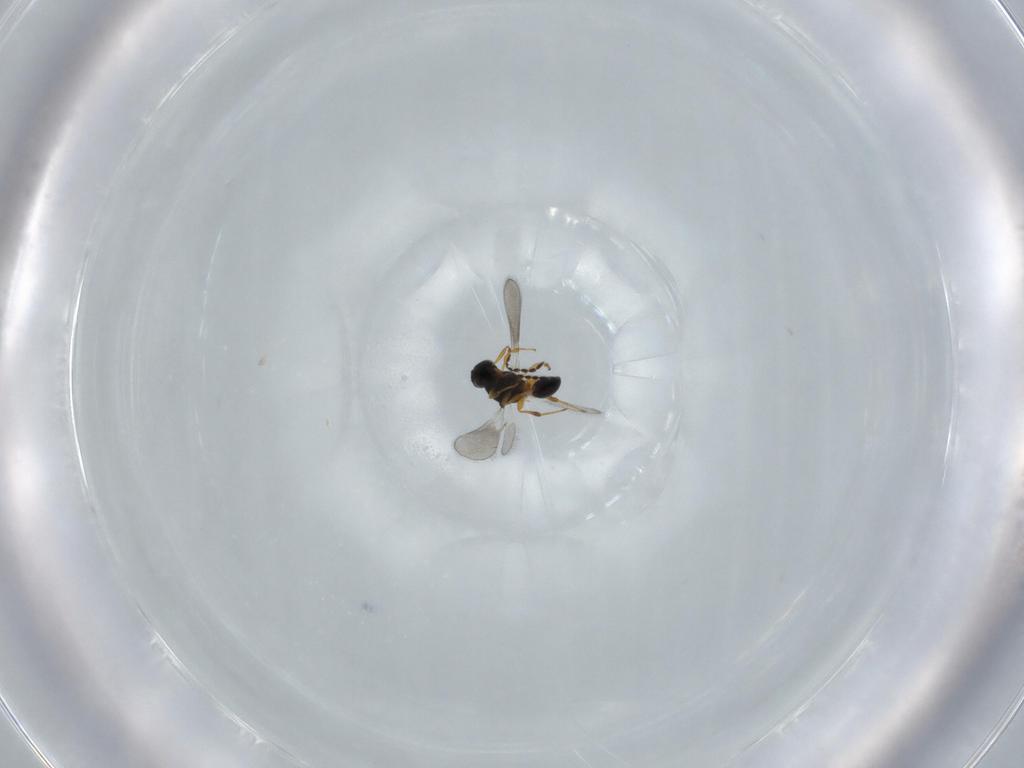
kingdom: Animalia
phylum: Arthropoda
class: Insecta
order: Hymenoptera
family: Platygastridae
